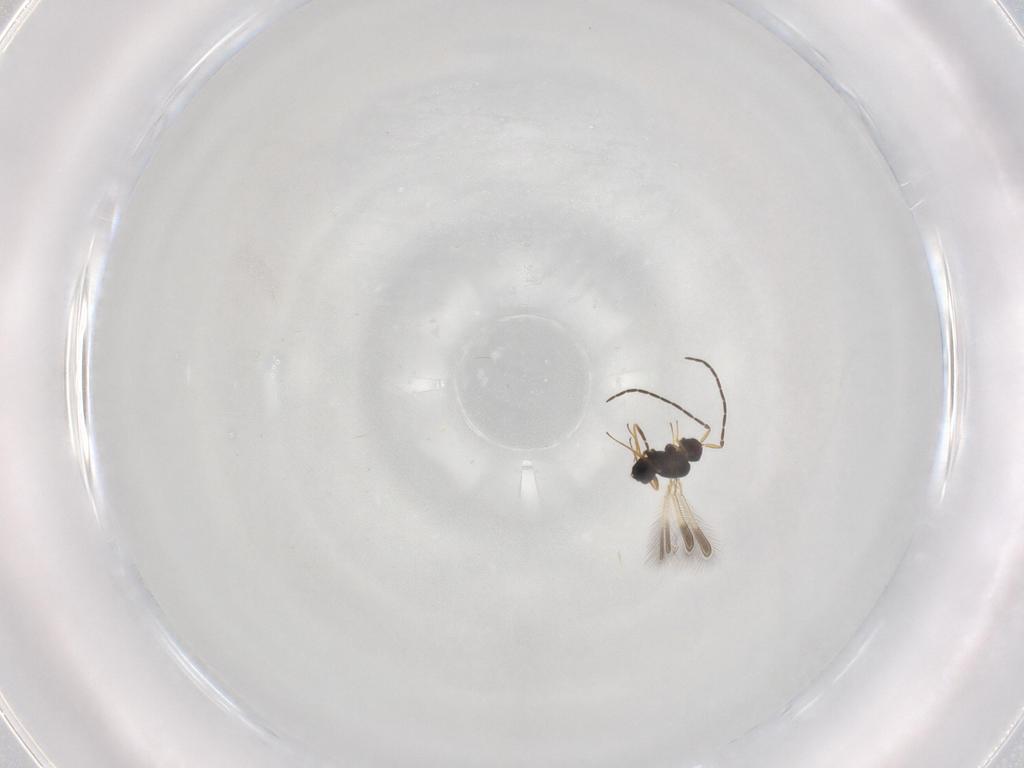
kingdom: Animalia
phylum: Arthropoda
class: Insecta
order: Hymenoptera
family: Mymaridae
